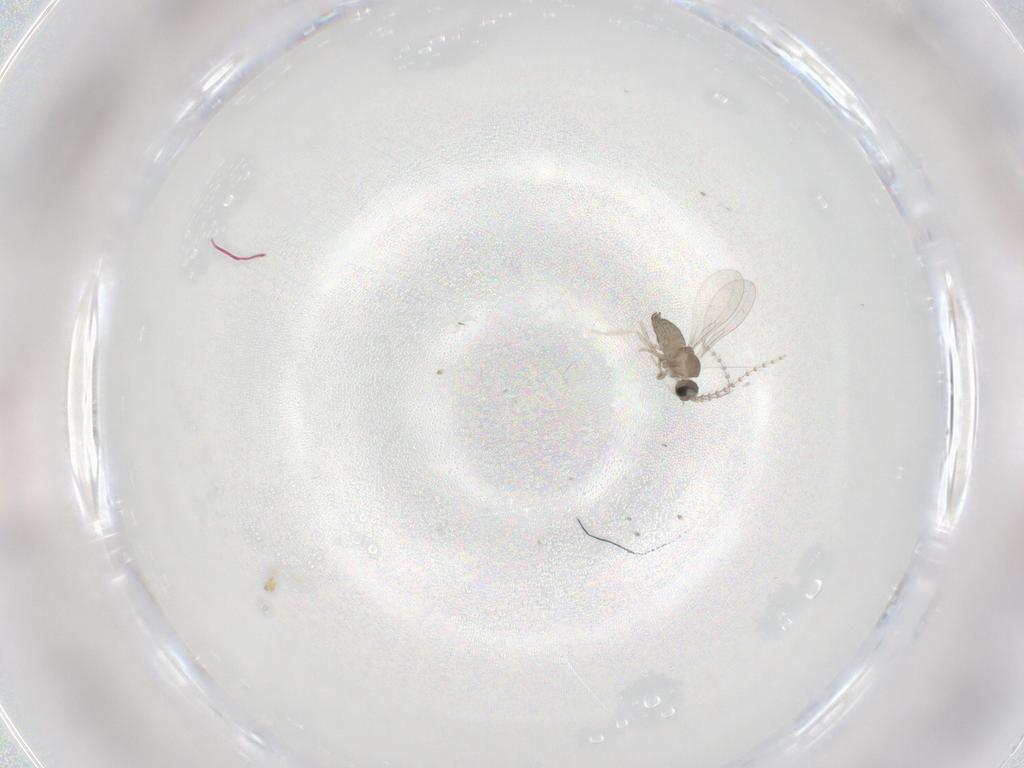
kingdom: Animalia
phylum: Arthropoda
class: Insecta
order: Diptera
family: Cecidomyiidae
